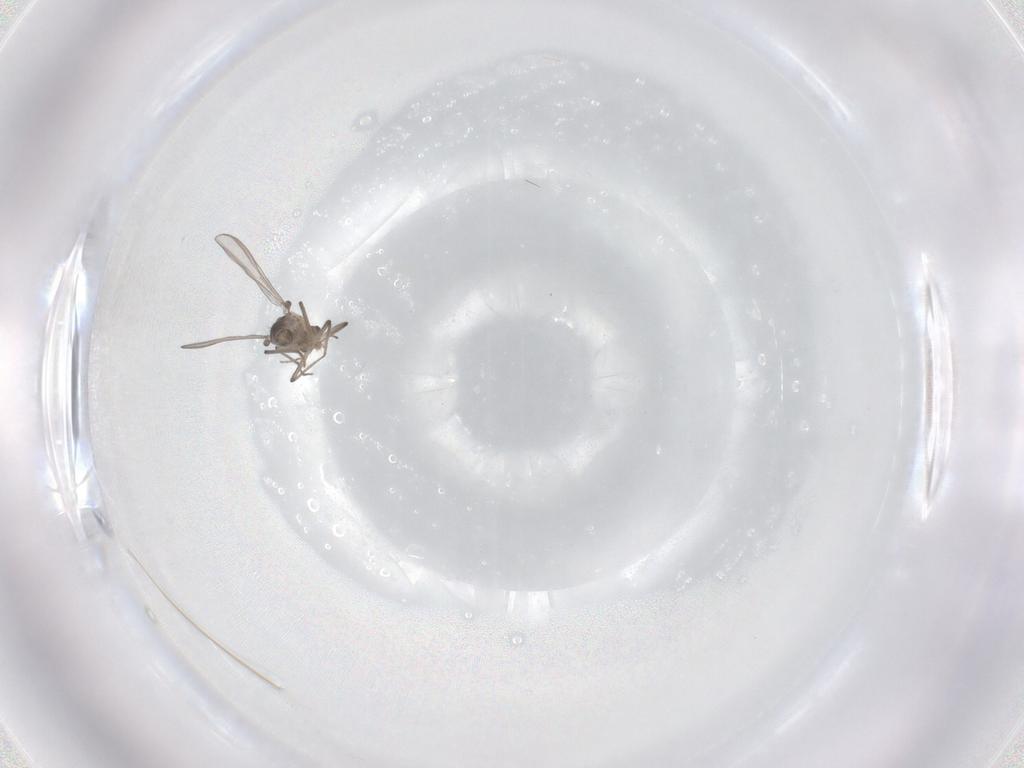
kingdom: Animalia
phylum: Arthropoda
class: Insecta
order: Diptera
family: Chironomidae
